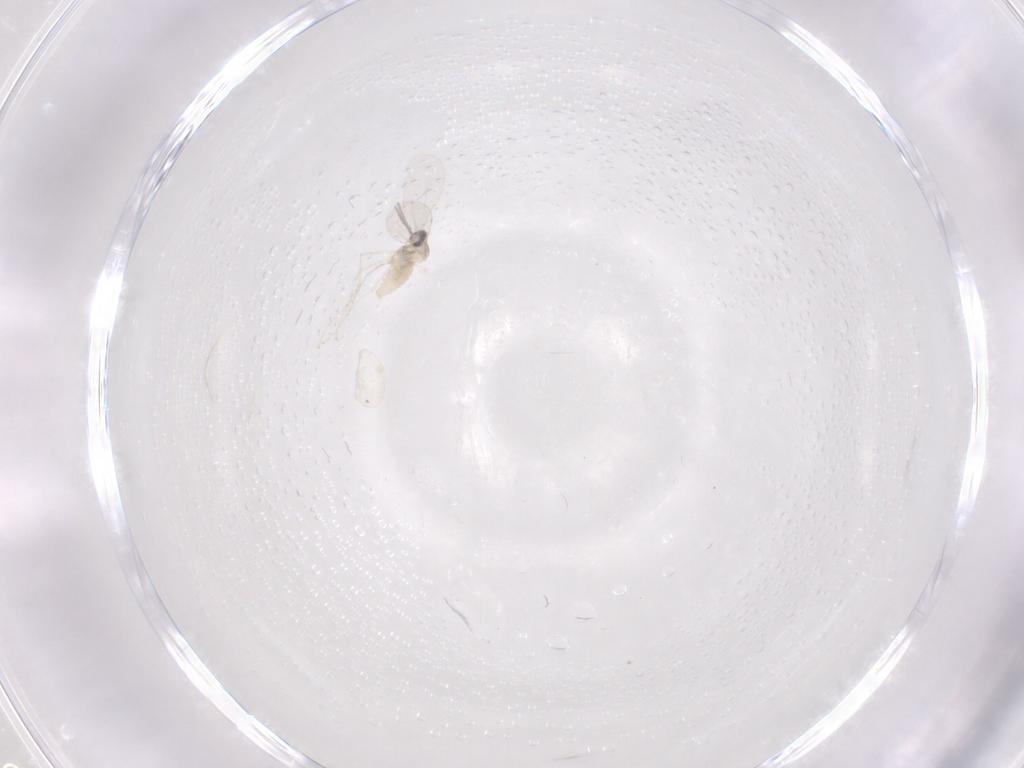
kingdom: Animalia
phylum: Arthropoda
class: Insecta
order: Diptera
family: Cecidomyiidae
